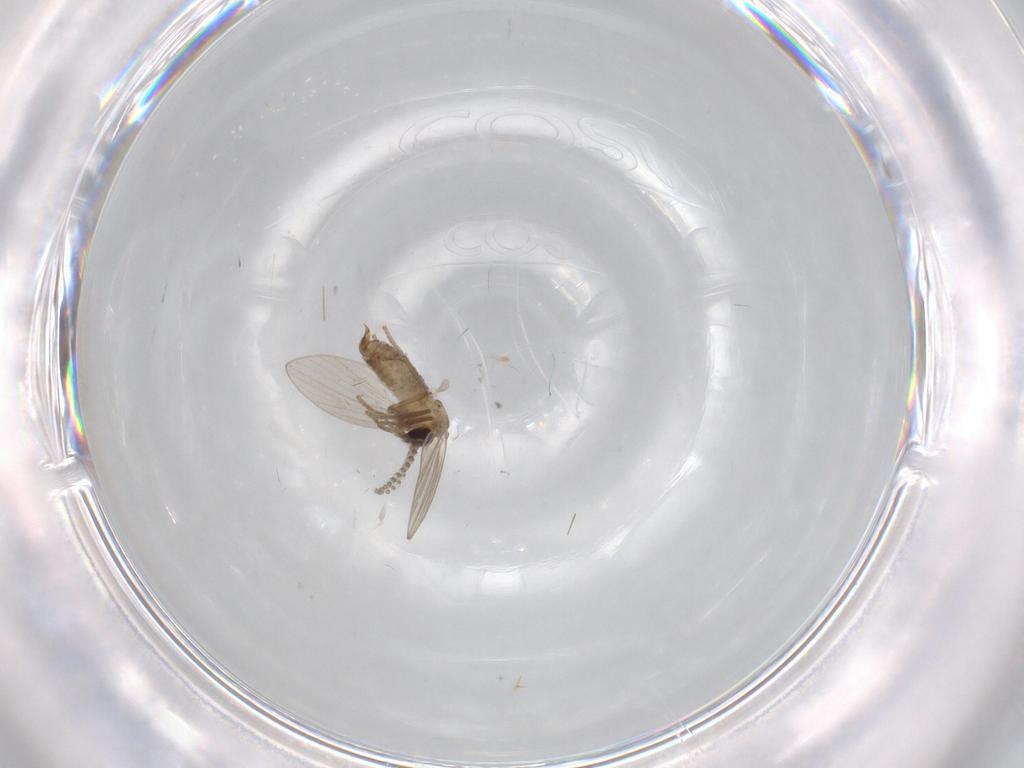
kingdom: Animalia
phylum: Arthropoda
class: Insecta
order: Diptera
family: Psychodidae
